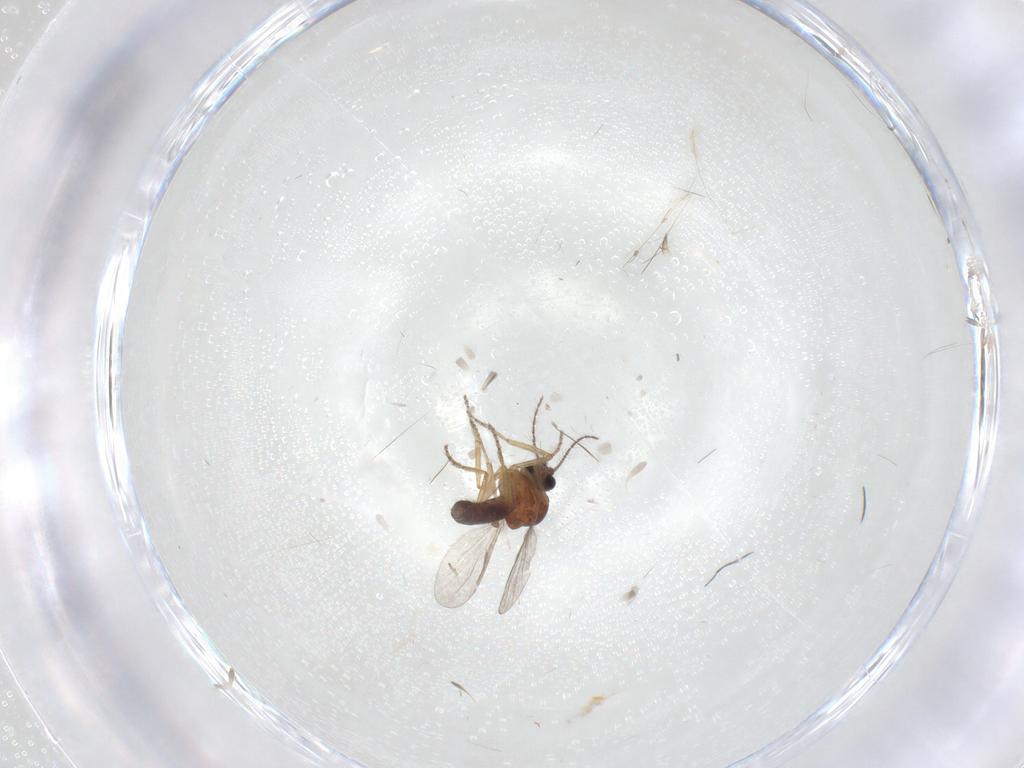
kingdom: Animalia
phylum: Arthropoda
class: Insecta
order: Diptera
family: Ceratopogonidae
